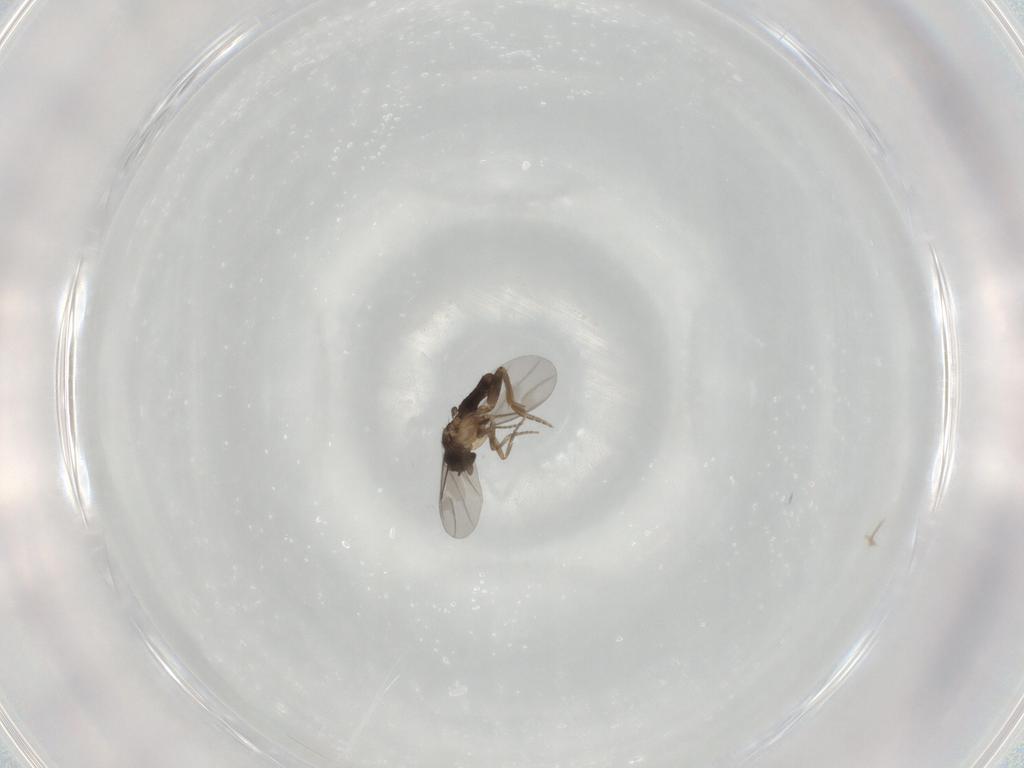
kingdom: Animalia
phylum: Arthropoda
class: Insecta
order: Diptera
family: Cecidomyiidae
